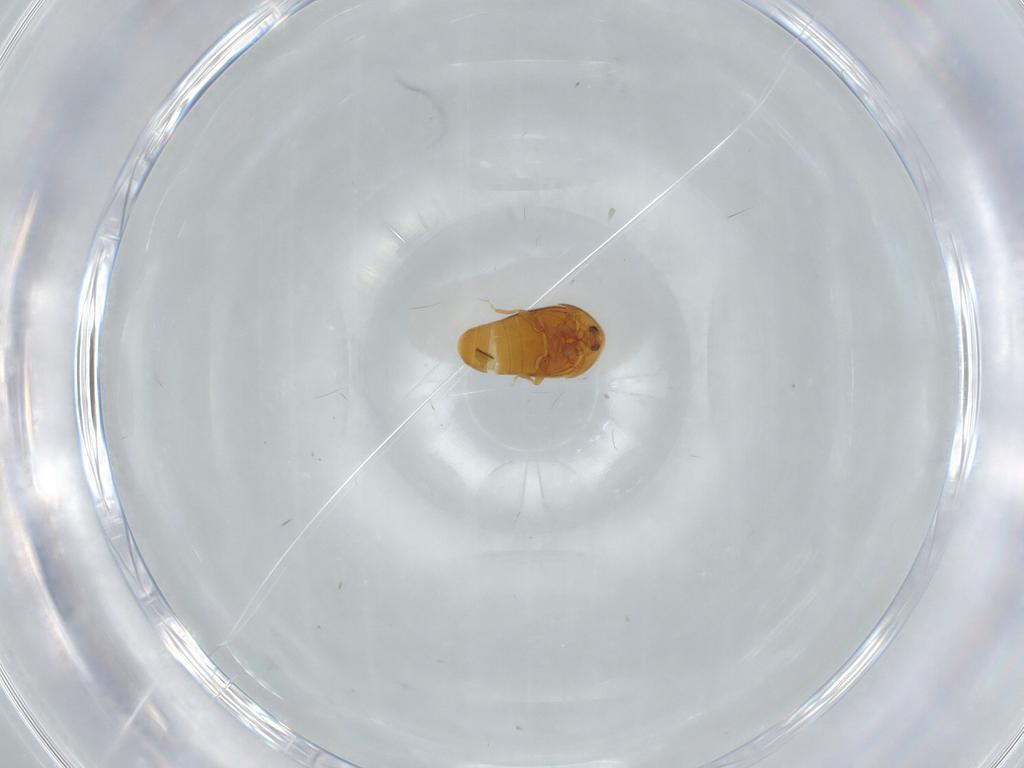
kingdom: Animalia
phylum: Arthropoda
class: Insecta
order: Coleoptera
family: Corylophidae
